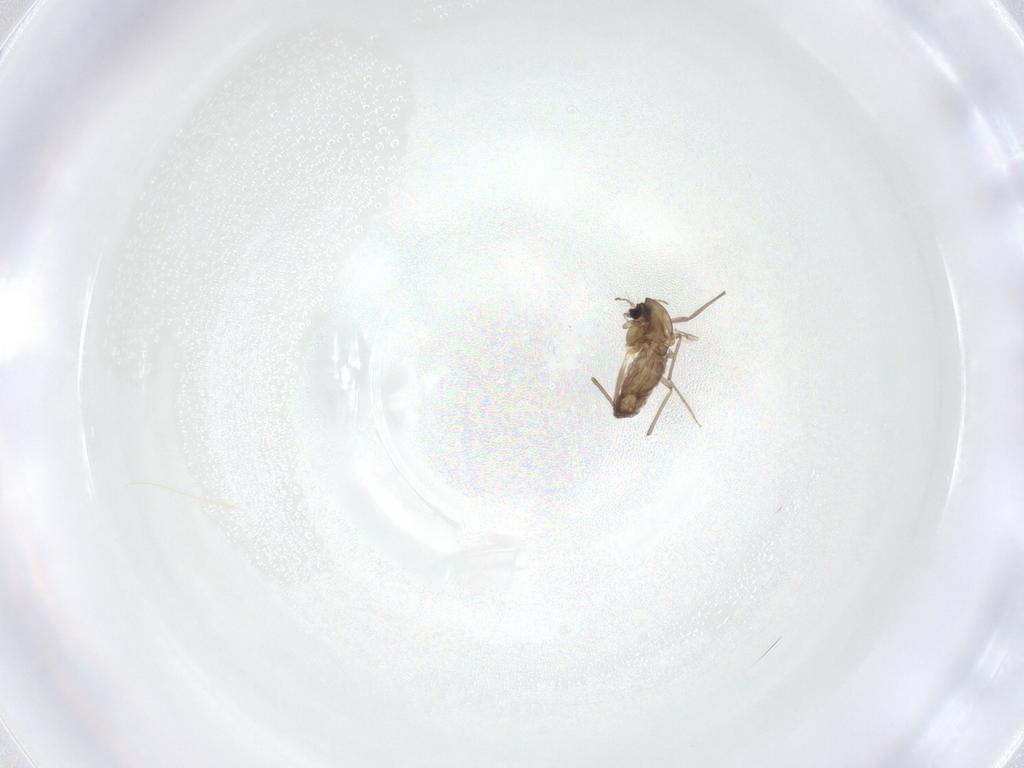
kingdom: Animalia
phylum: Arthropoda
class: Insecta
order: Diptera
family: Chironomidae
